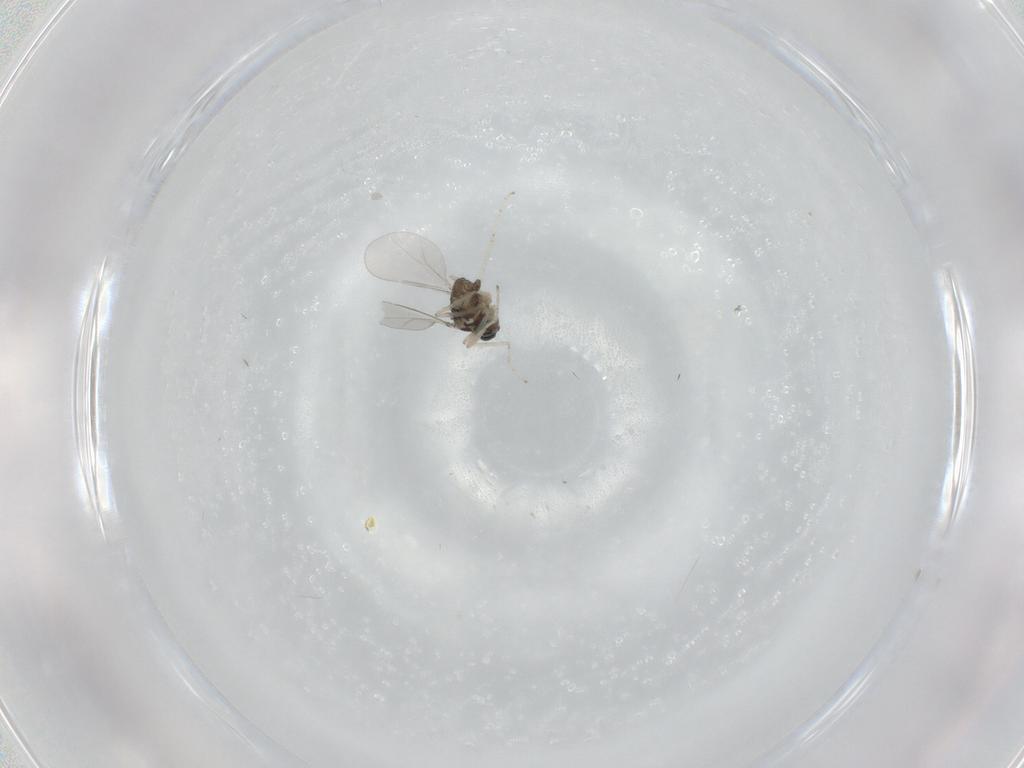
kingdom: Animalia
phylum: Arthropoda
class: Insecta
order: Diptera
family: Cecidomyiidae
